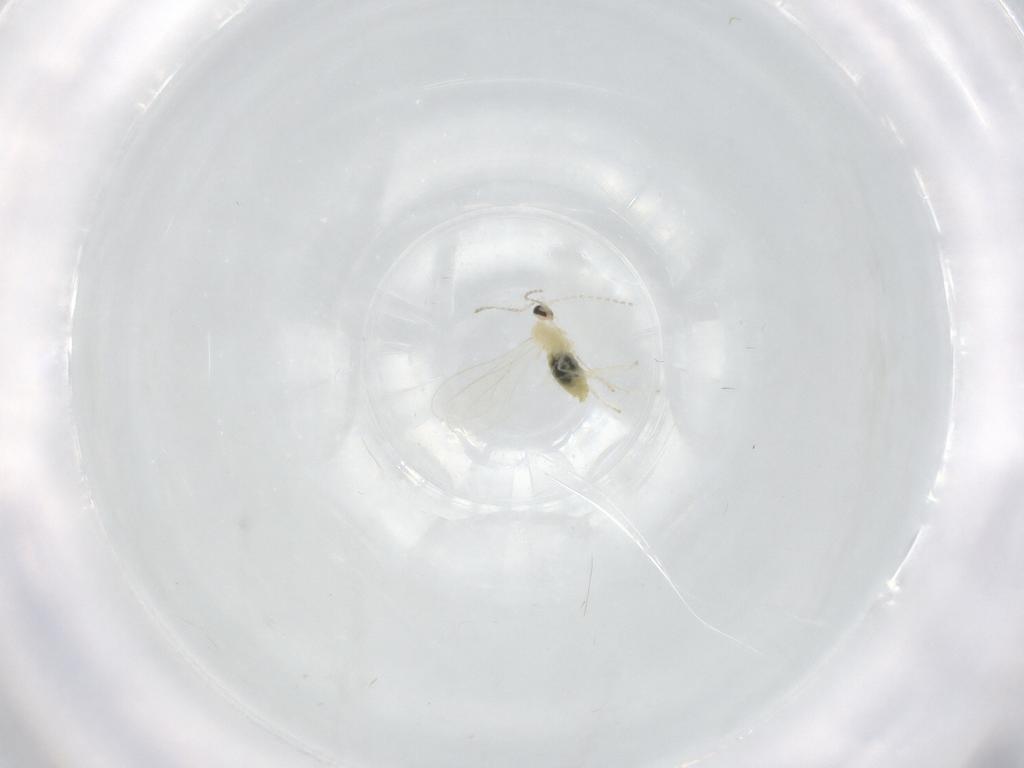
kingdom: Animalia
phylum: Arthropoda
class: Insecta
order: Diptera
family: Cecidomyiidae
